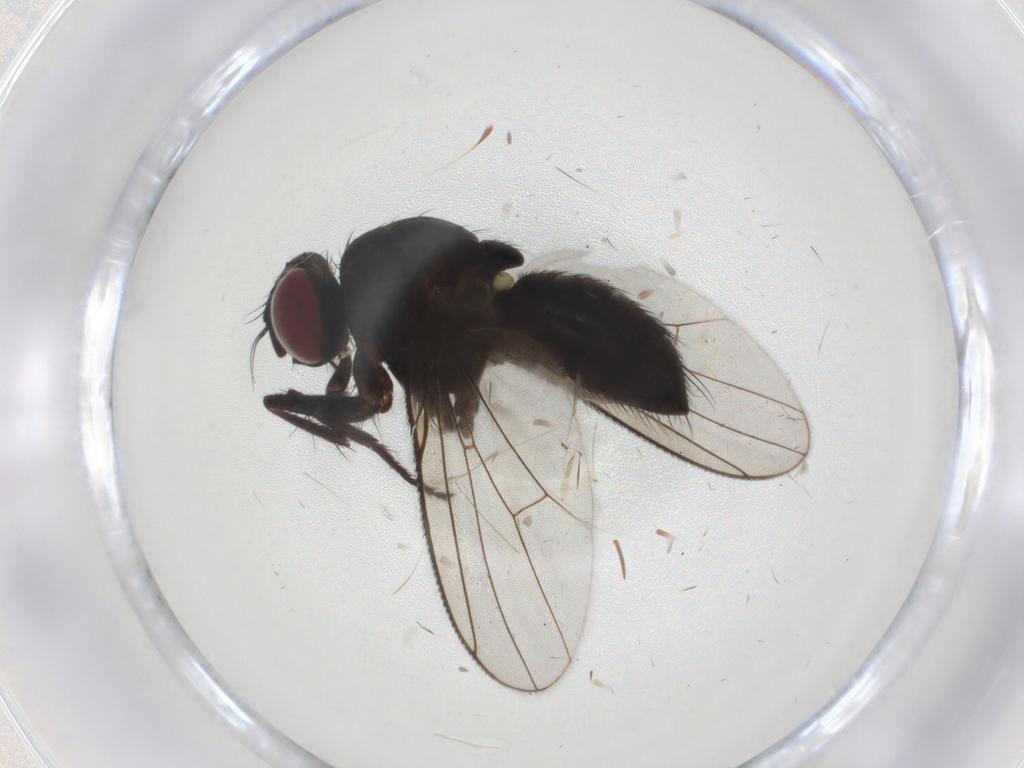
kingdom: Animalia
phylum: Arthropoda
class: Insecta
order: Diptera
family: Muscidae
